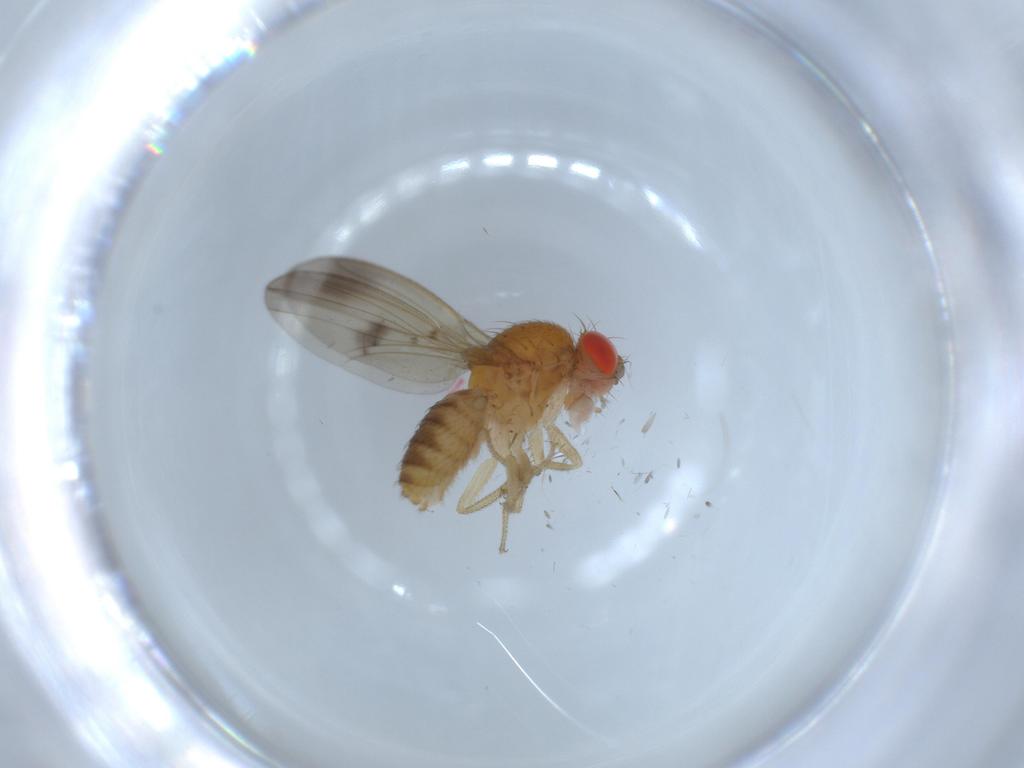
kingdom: Animalia
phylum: Arthropoda
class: Insecta
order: Diptera
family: Drosophilidae
